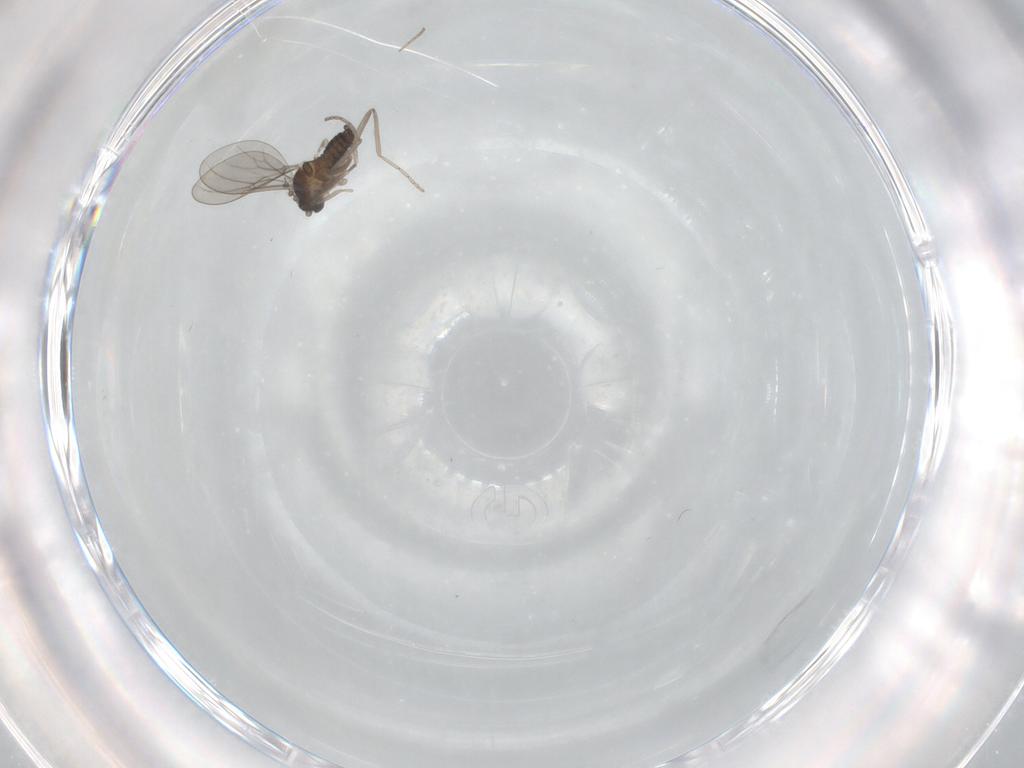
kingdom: Animalia
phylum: Arthropoda
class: Insecta
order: Diptera
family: Cecidomyiidae
